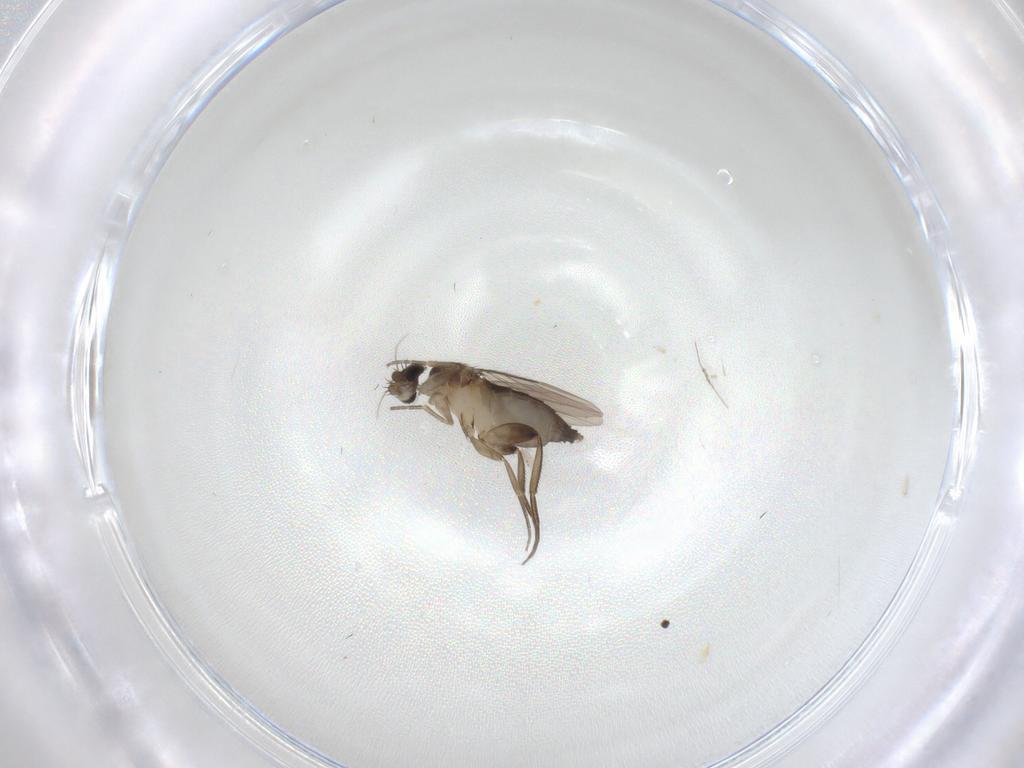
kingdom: Animalia
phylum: Arthropoda
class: Insecta
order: Diptera
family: Phoridae
